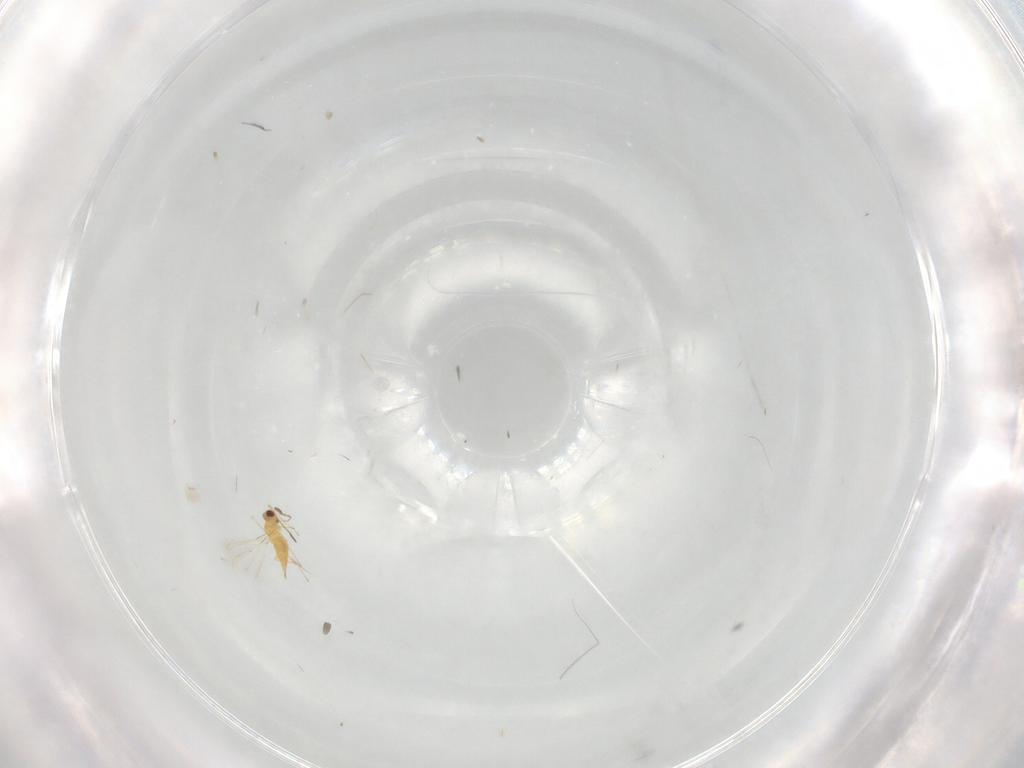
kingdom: Animalia
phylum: Arthropoda
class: Insecta
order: Hymenoptera
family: Mymaridae
